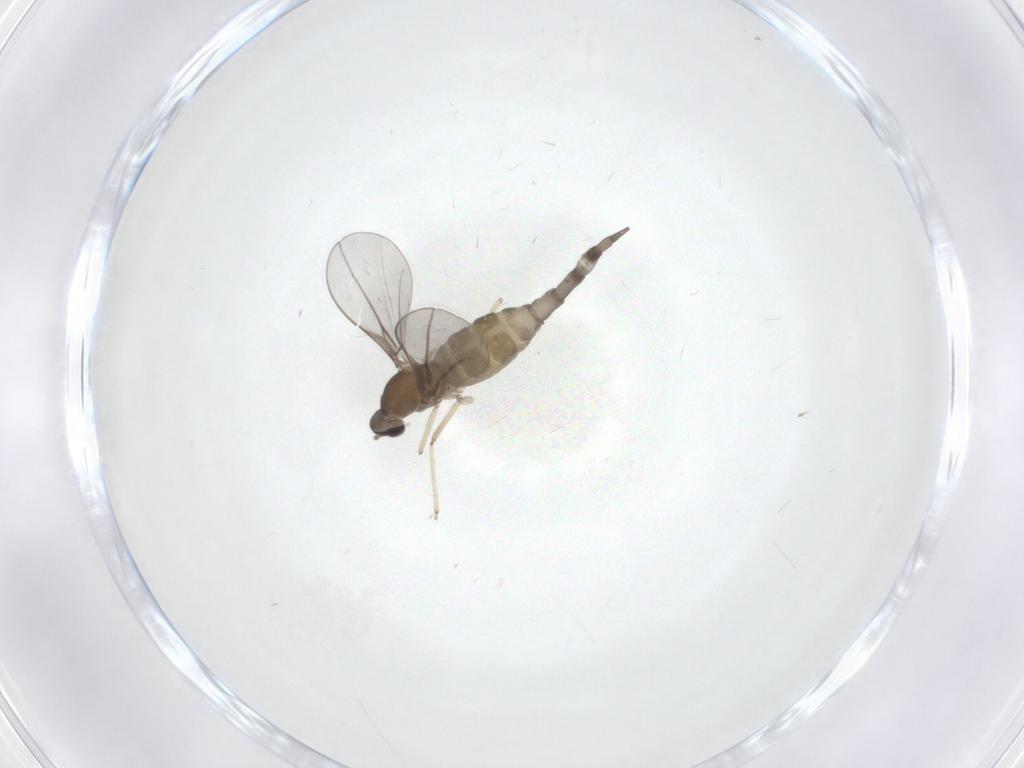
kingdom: Animalia
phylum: Arthropoda
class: Insecta
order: Diptera
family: Cecidomyiidae
